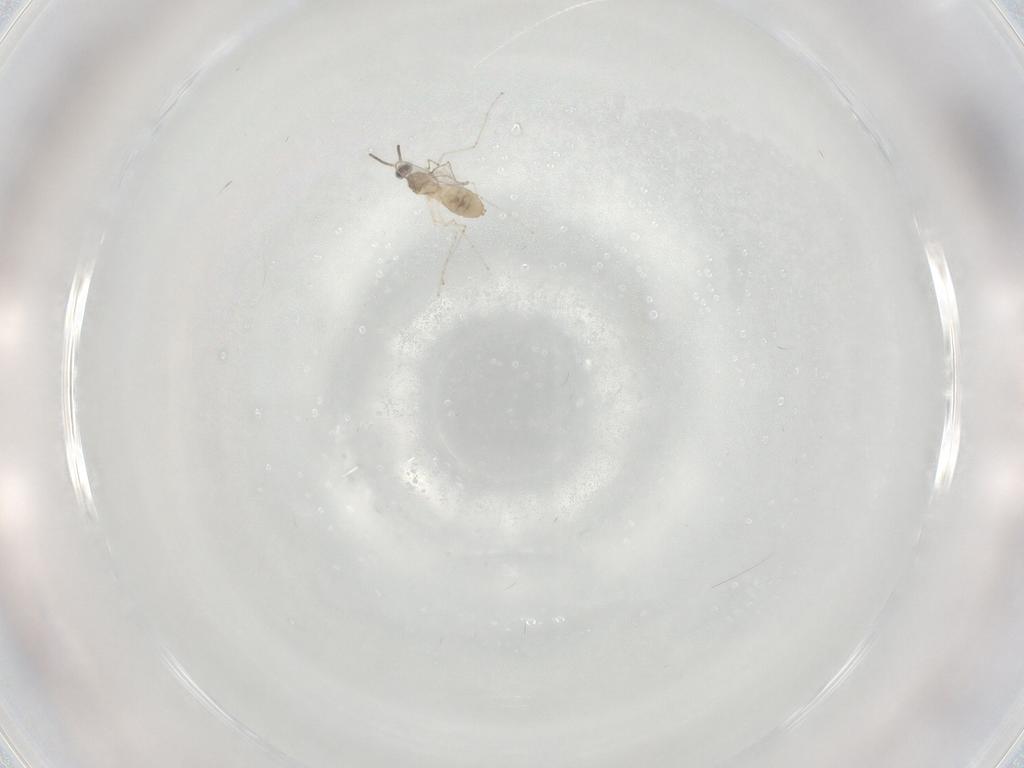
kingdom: Animalia
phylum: Arthropoda
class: Insecta
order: Diptera
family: Cecidomyiidae
